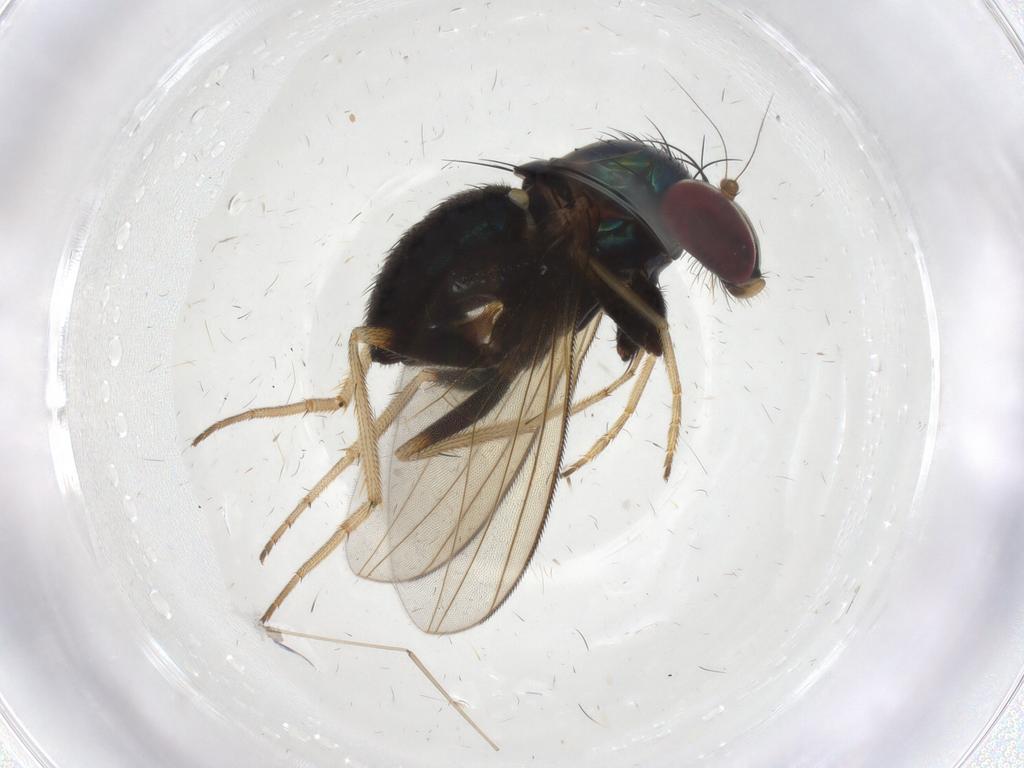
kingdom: Animalia
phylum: Arthropoda
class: Insecta
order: Diptera
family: Dolichopodidae
